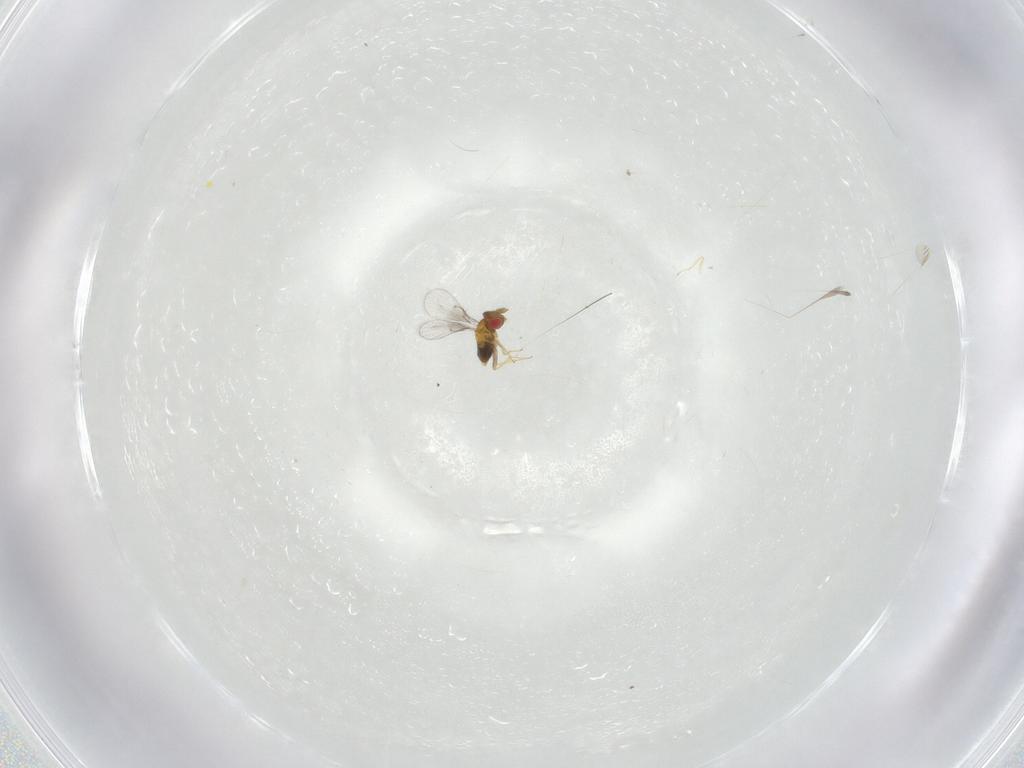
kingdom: Animalia
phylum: Arthropoda
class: Insecta
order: Hymenoptera
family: Trichogrammatidae
